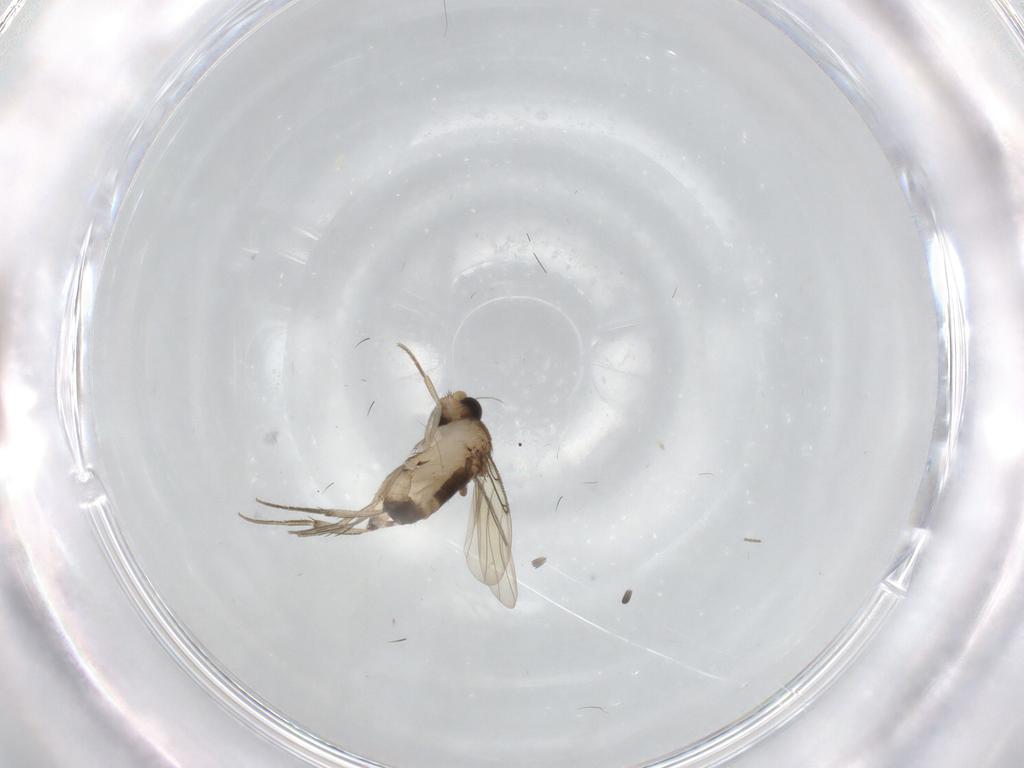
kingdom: Animalia
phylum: Arthropoda
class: Insecta
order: Diptera
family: Phoridae
